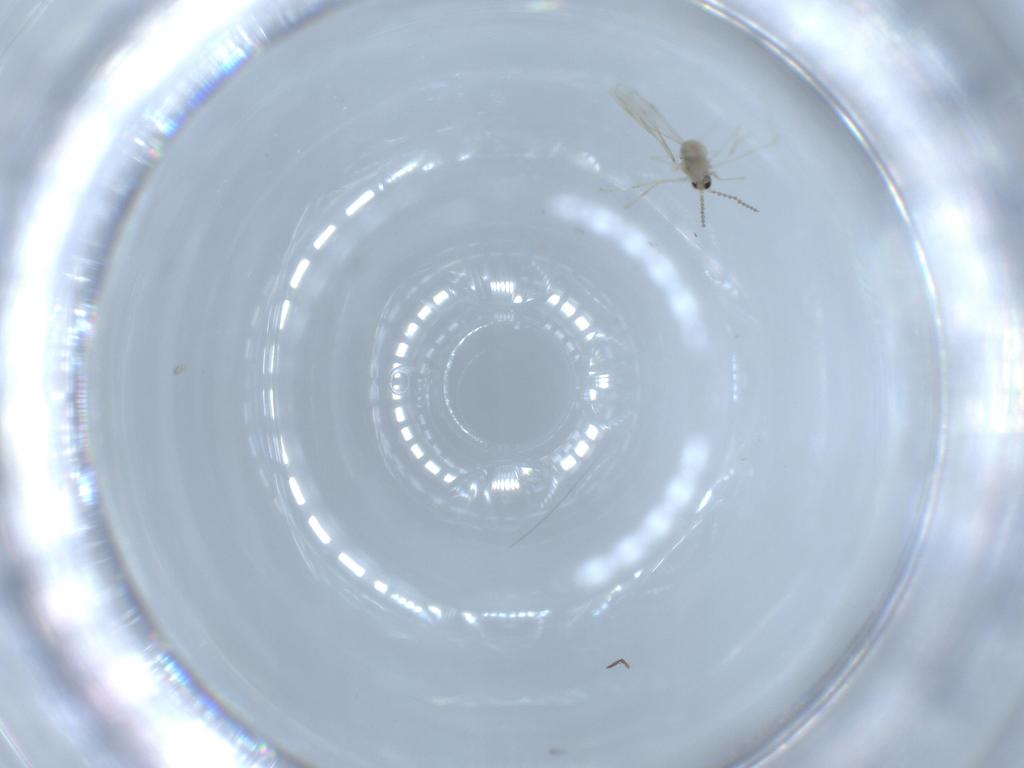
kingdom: Animalia
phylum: Arthropoda
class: Insecta
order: Diptera
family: Cecidomyiidae
